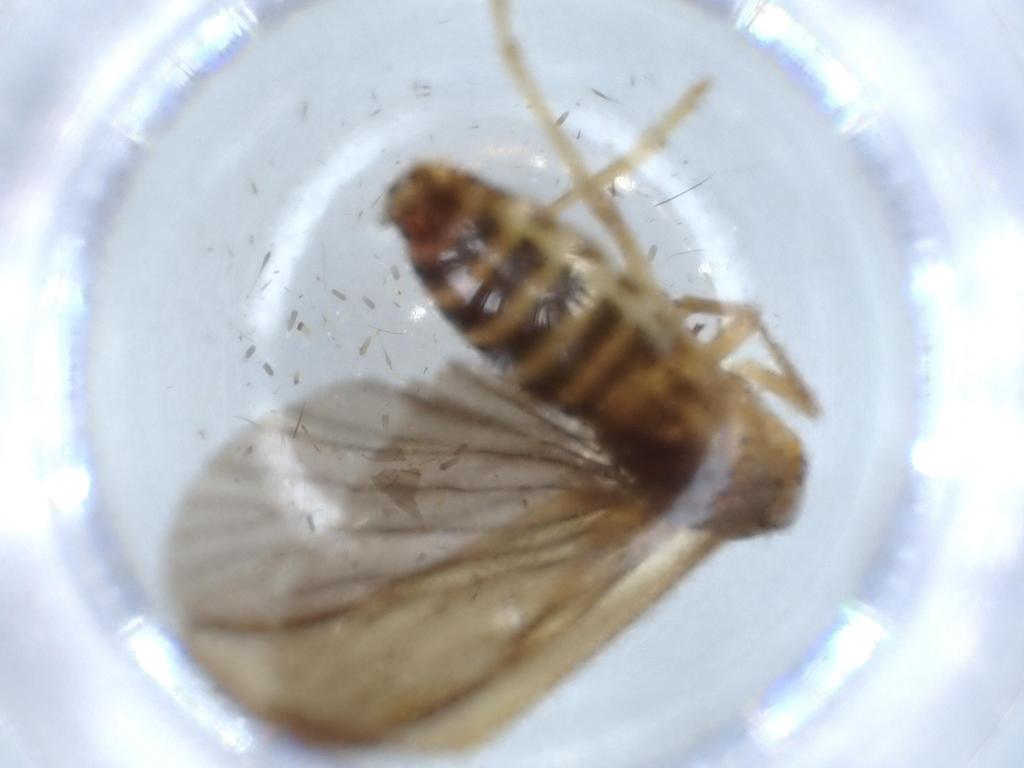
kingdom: Animalia
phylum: Arthropoda
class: Insecta
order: Hemiptera
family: Achilidae
